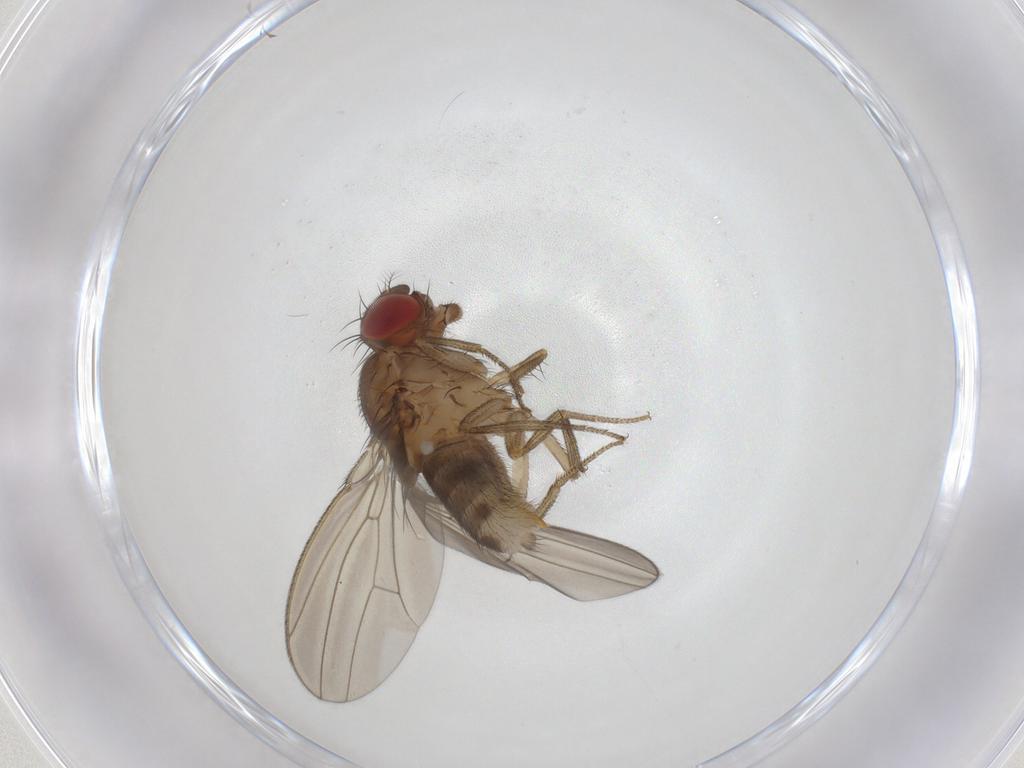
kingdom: Animalia
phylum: Arthropoda
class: Insecta
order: Diptera
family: Drosophilidae
